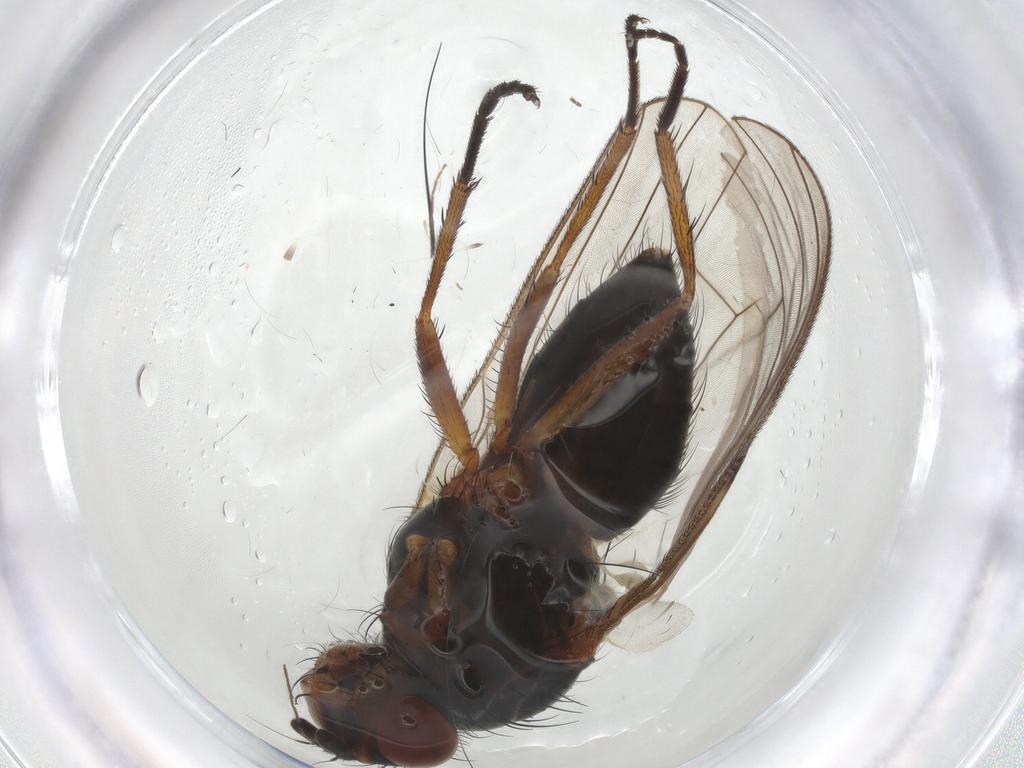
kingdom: Animalia
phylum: Arthropoda
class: Insecta
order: Diptera
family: Anthomyiidae
